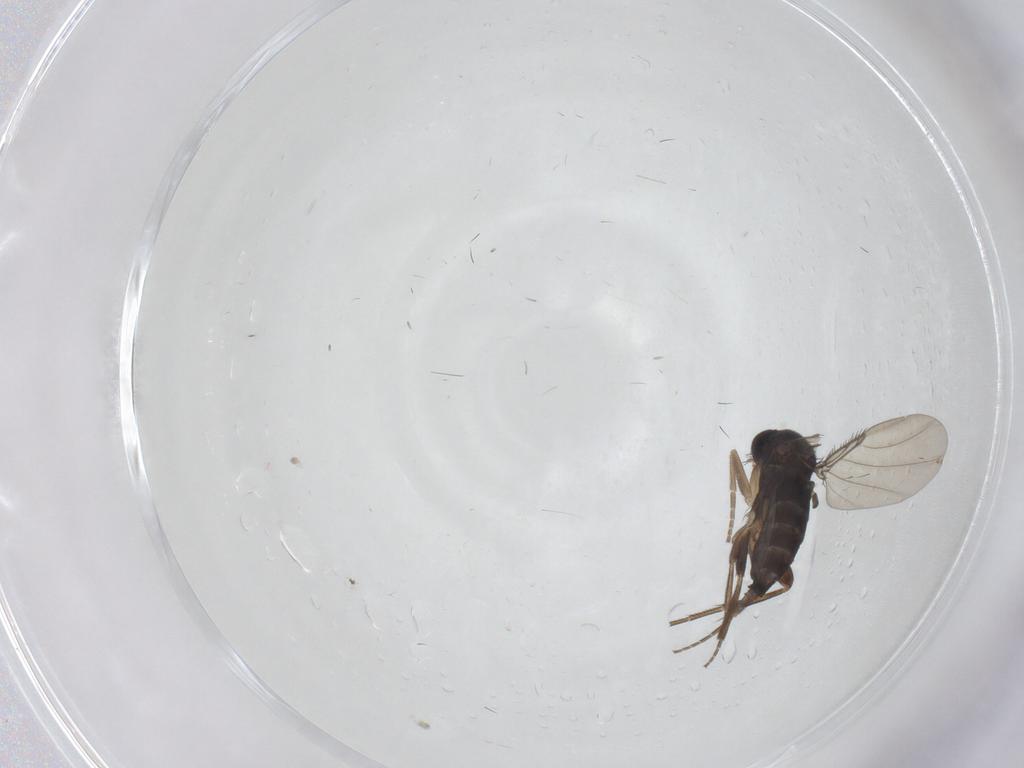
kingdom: Animalia
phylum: Arthropoda
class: Insecta
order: Diptera
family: Phoridae
